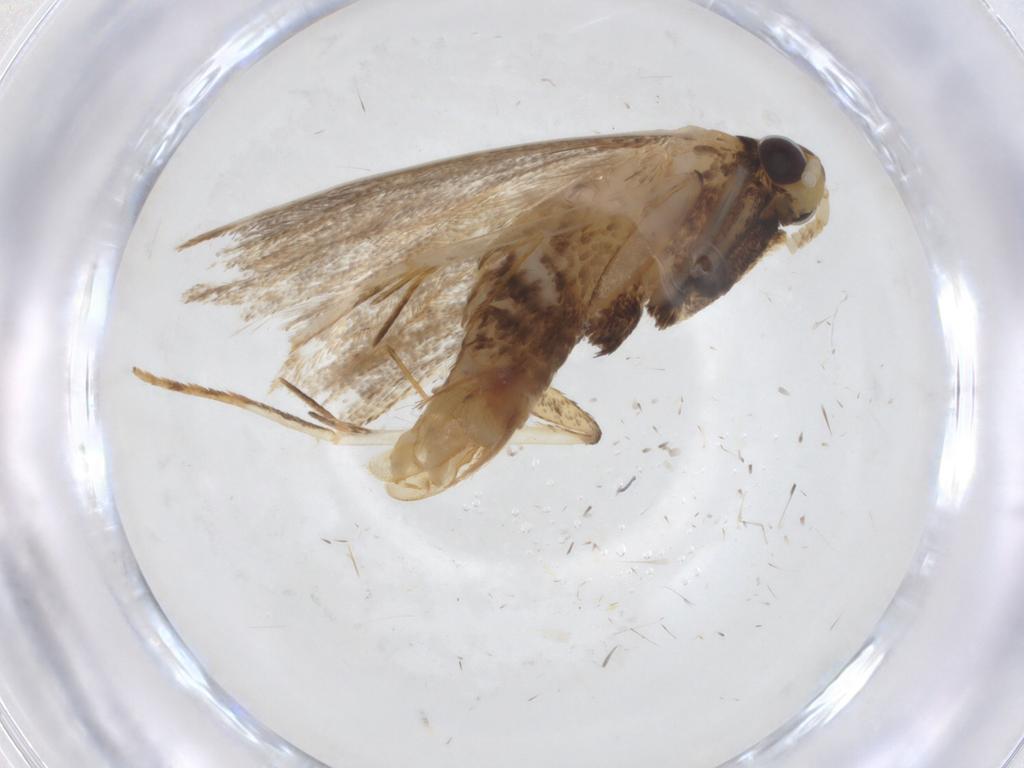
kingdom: Animalia
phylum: Arthropoda
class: Insecta
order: Lepidoptera
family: Lecithoceridae
